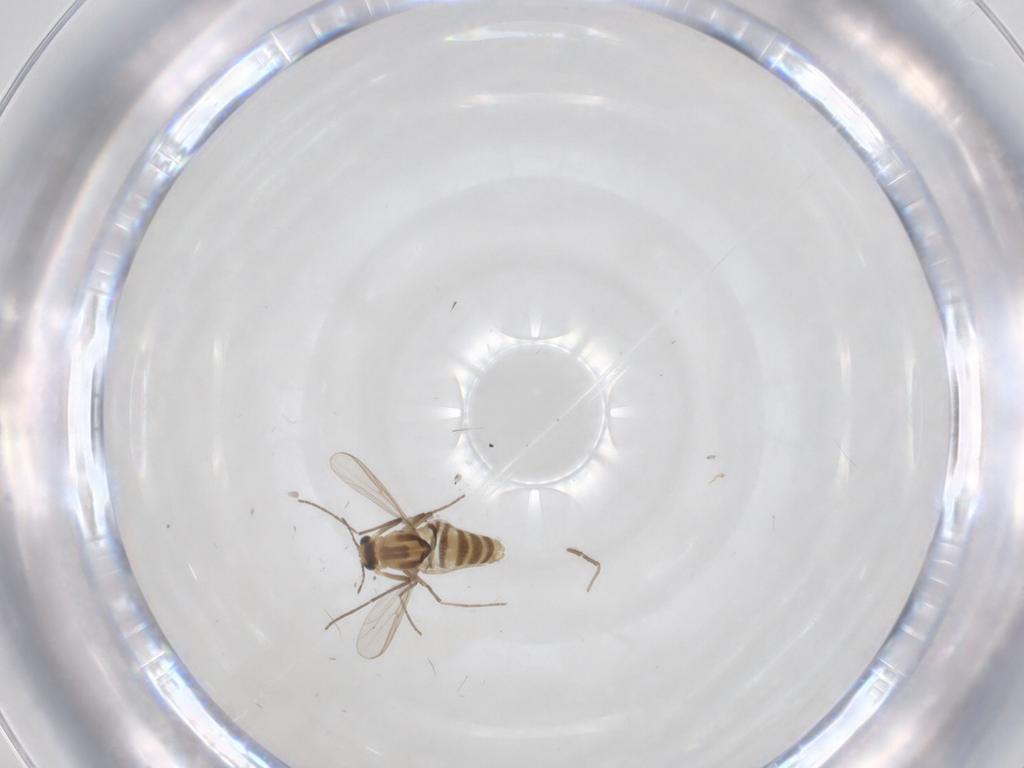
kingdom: Animalia
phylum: Arthropoda
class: Insecta
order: Diptera
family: Chironomidae
